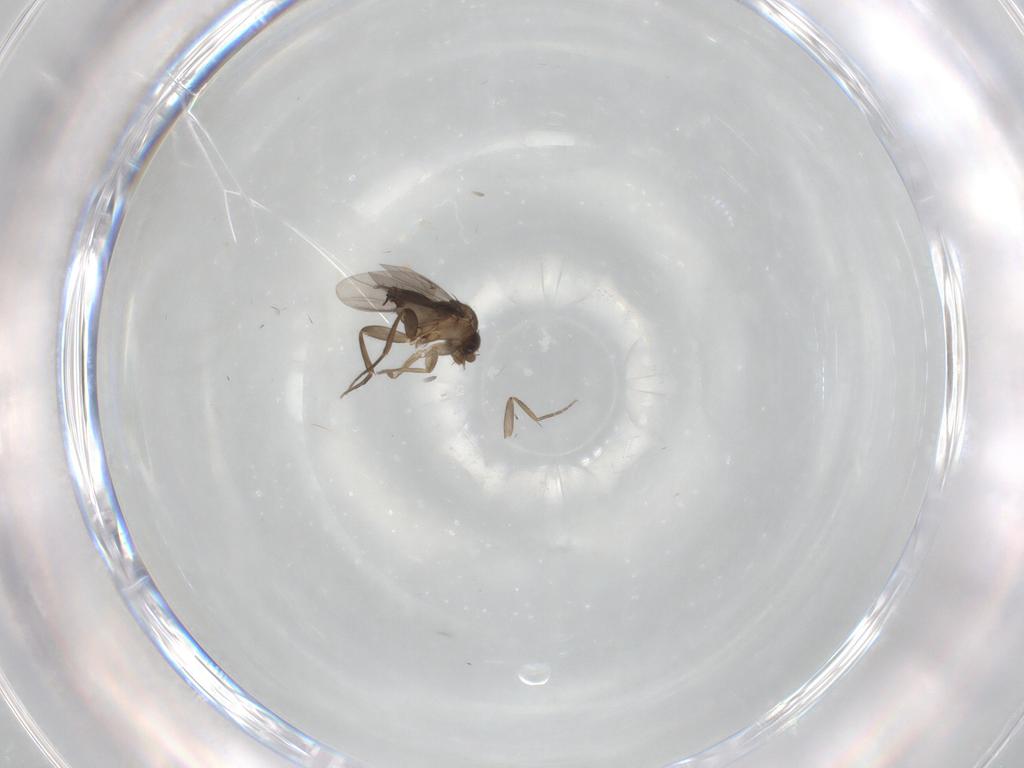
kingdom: Animalia
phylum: Arthropoda
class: Insecta
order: Diptera
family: Phoridae
